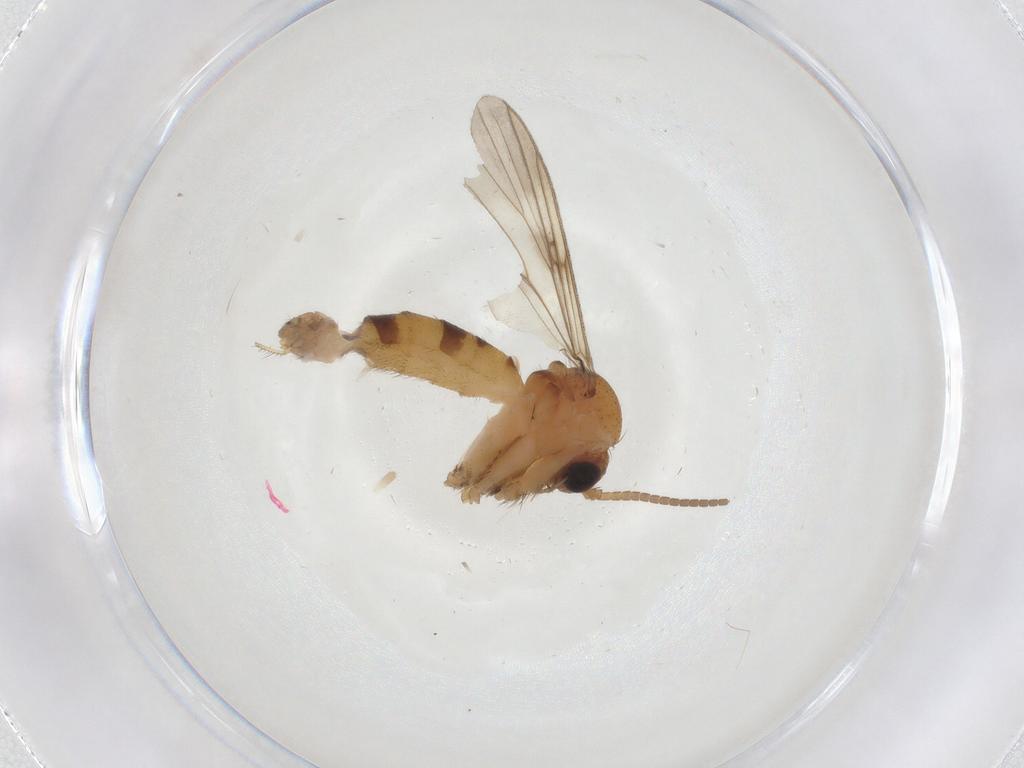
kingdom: Animalia
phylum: Arthropoda
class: Insecta
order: Diptera
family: Mycetophilidae
